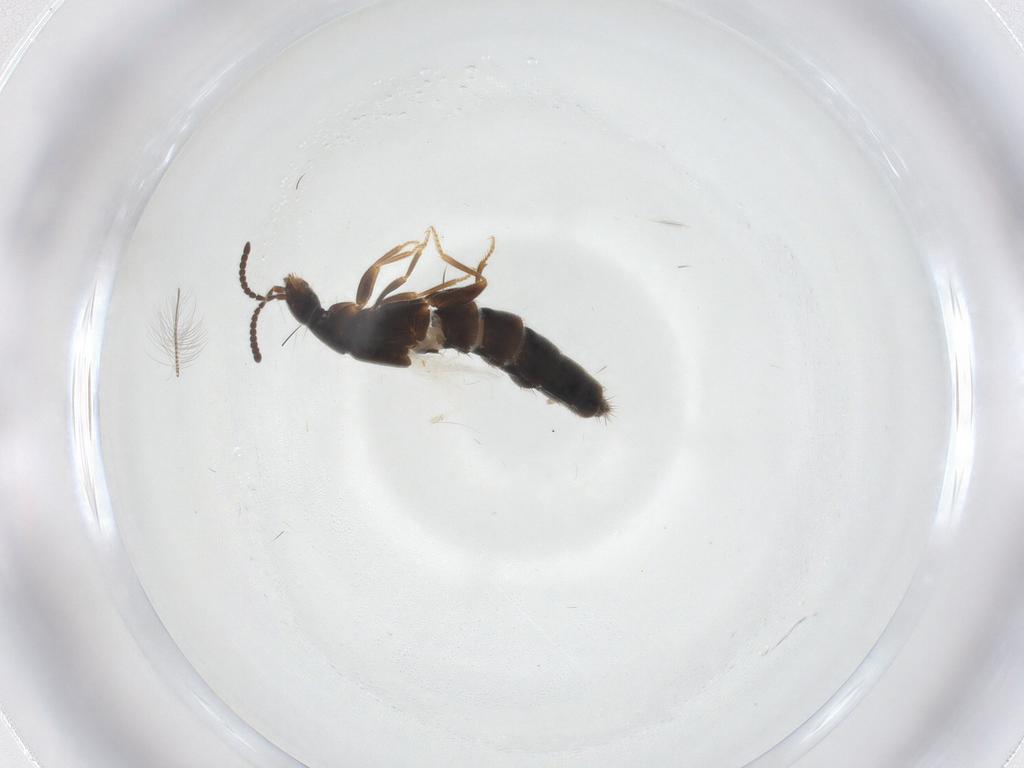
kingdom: Animalia
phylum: Arthropoda
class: Insecta
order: Coleoptera
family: Staphylinidae
